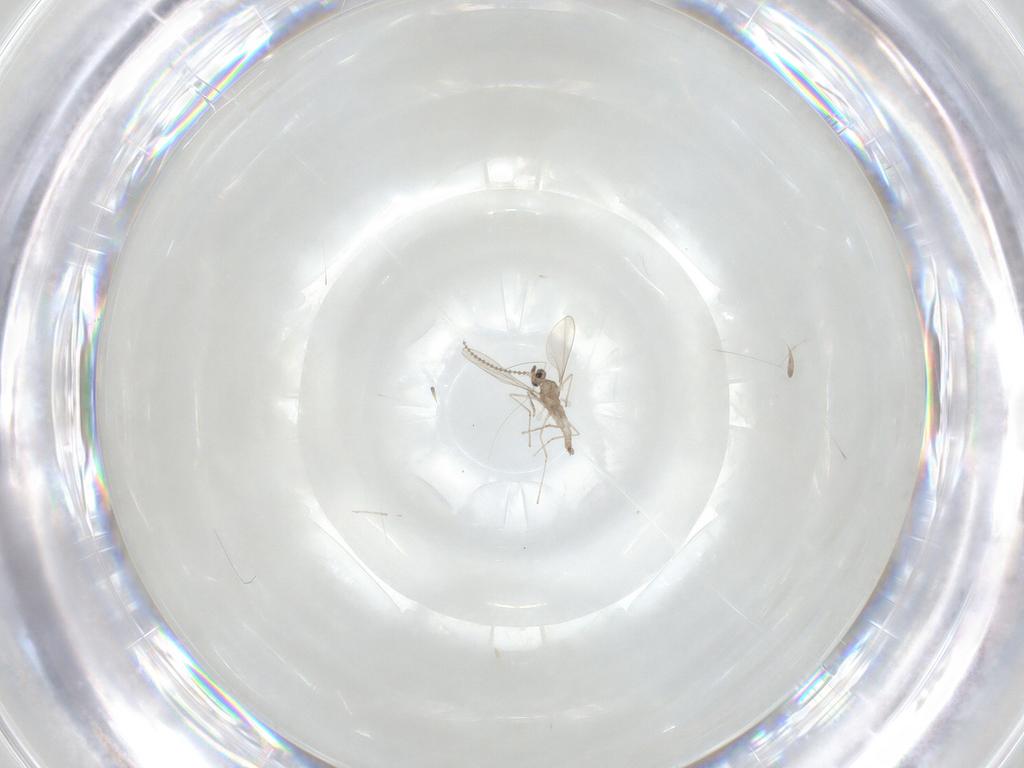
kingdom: Animalia
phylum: Arthropoda
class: Insecta
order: Diptera
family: Cecidomyiidae
